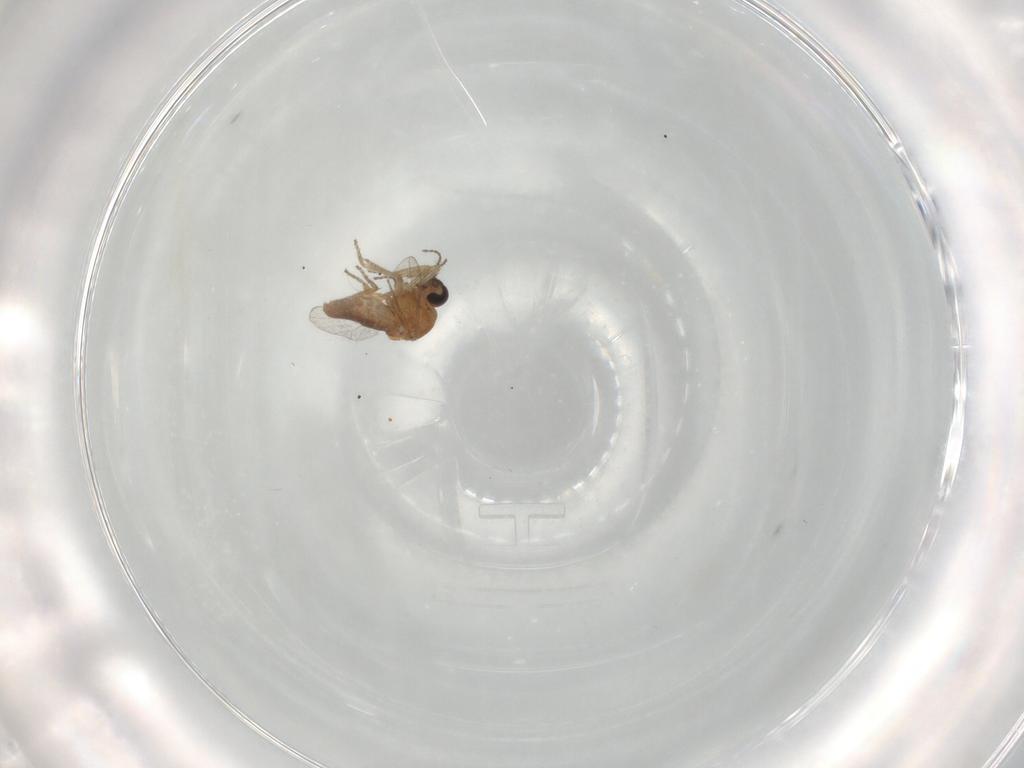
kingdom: Animalia
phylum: Arthropoda
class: Insecta
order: Diptera
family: Ceratopogonidae
